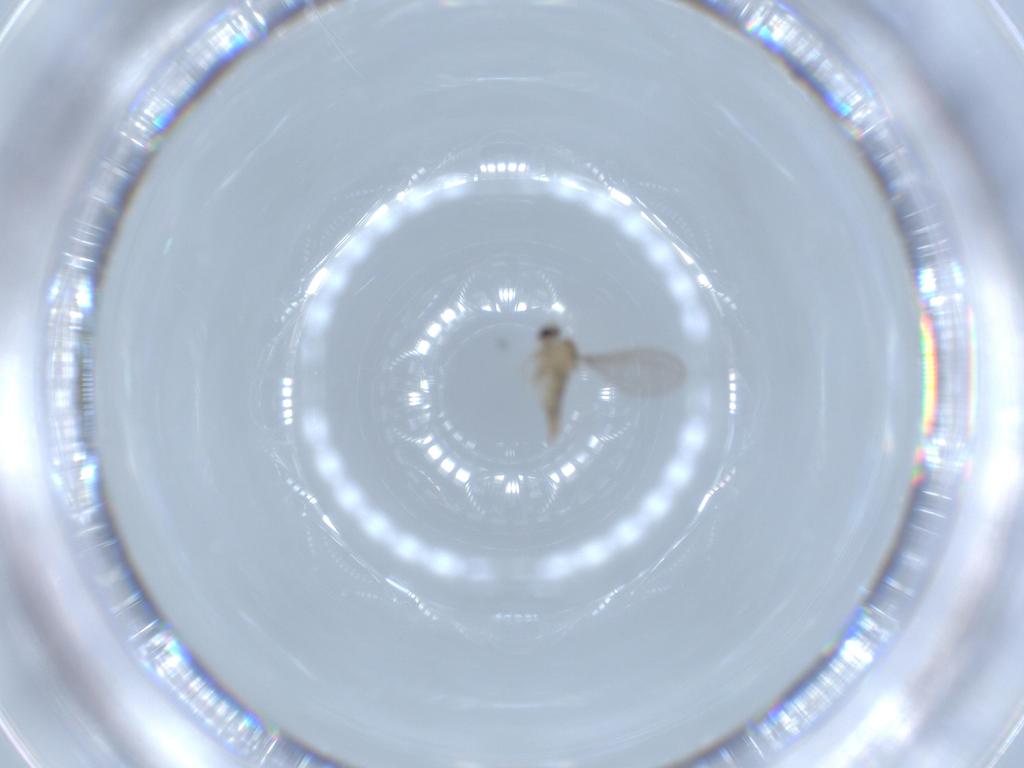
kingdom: Animalia
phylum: Arthropoda
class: Insecta
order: Diptera
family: Cecidomyiidae
